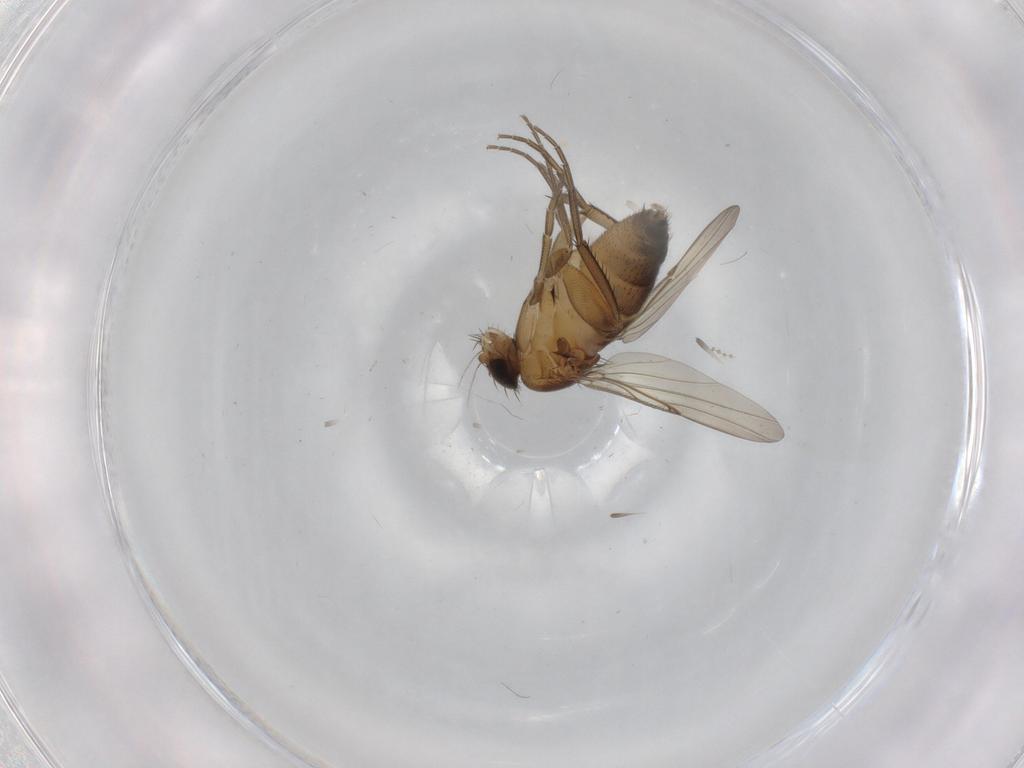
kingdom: Animalia
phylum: Arthropoda
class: Insecta
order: Diptera
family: Phoridae
